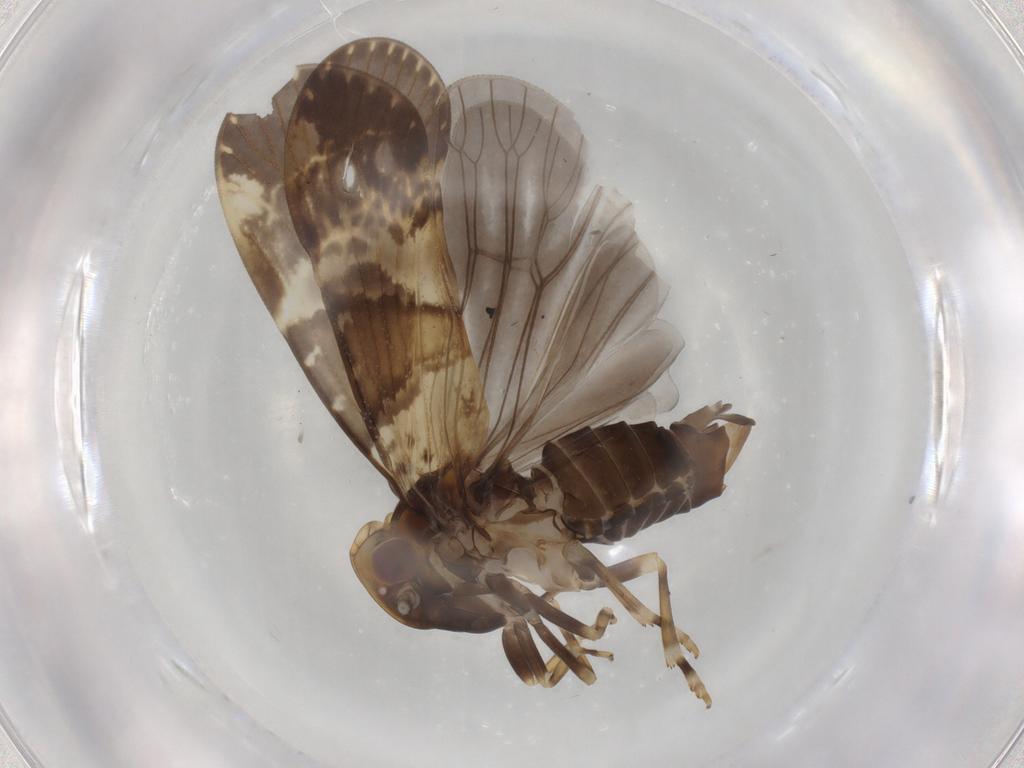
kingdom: Animalia
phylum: Arthropoda
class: Insecta
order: Hemiptera
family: Cixiidae
